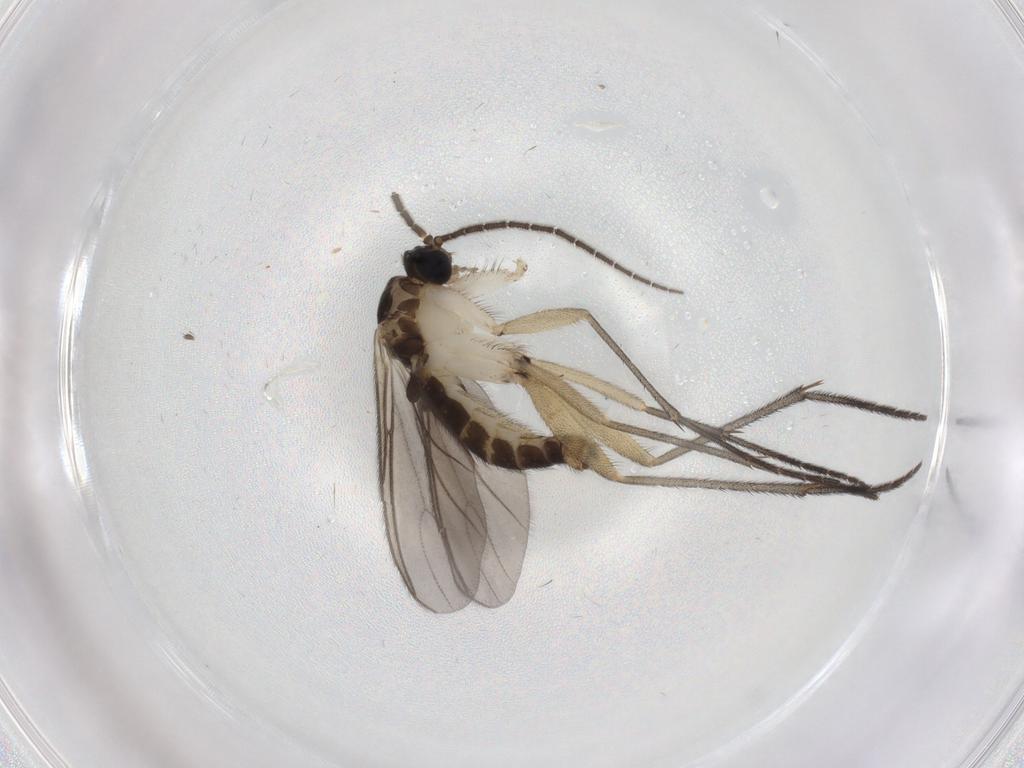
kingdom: Animalia
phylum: Arthropoda
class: Insecta
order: Diptera
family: Sciaridae
